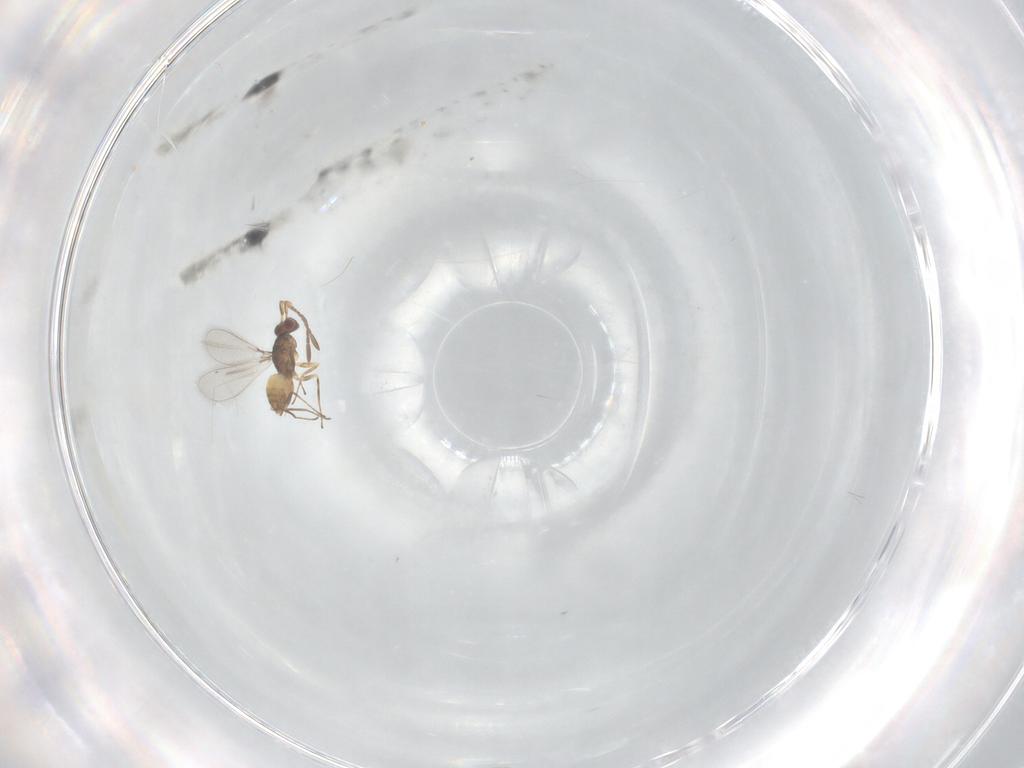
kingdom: Animalia
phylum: Arthropoda
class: Insecta
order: Hymenoptera
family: Mymaridae
